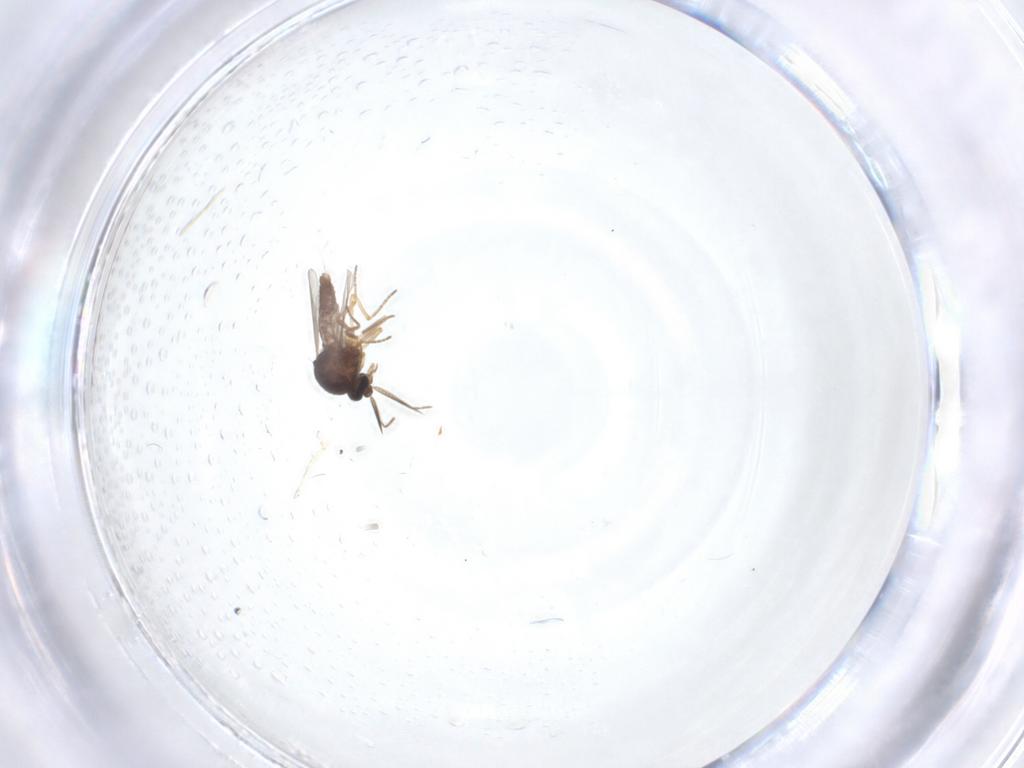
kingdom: Animalia
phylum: Arthropoda
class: Insecta
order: Diptera
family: Ceratopogonidae
